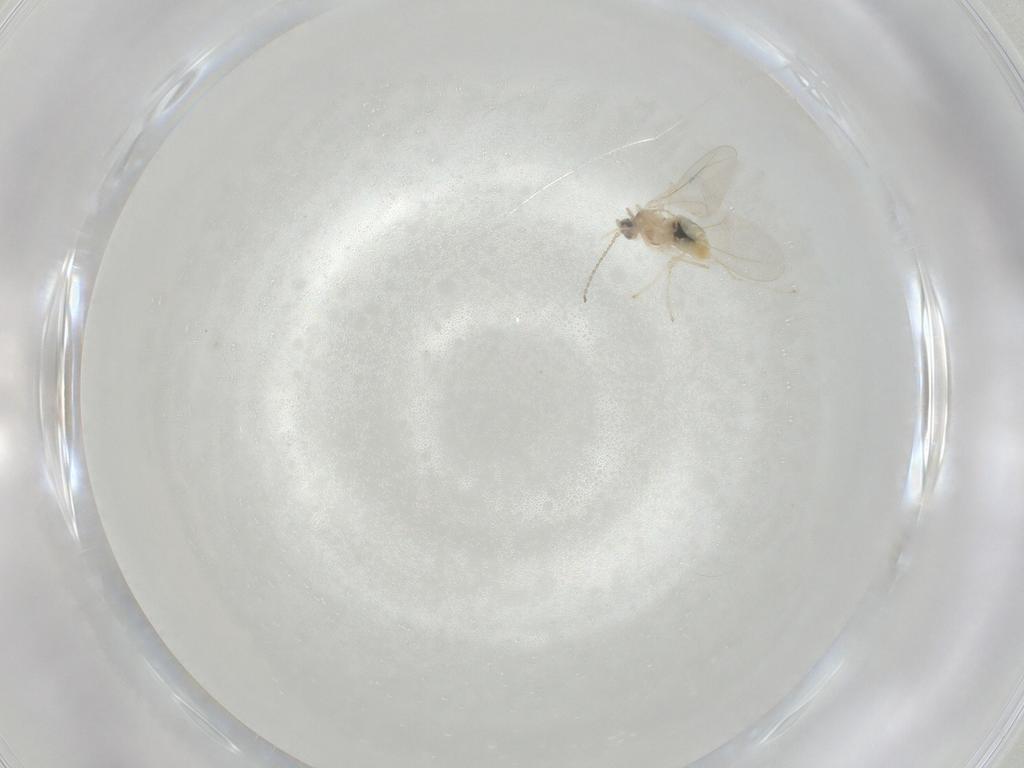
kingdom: Animalia
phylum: Arthropoda
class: Insecta
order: Diptera
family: Cecidomyiidae
